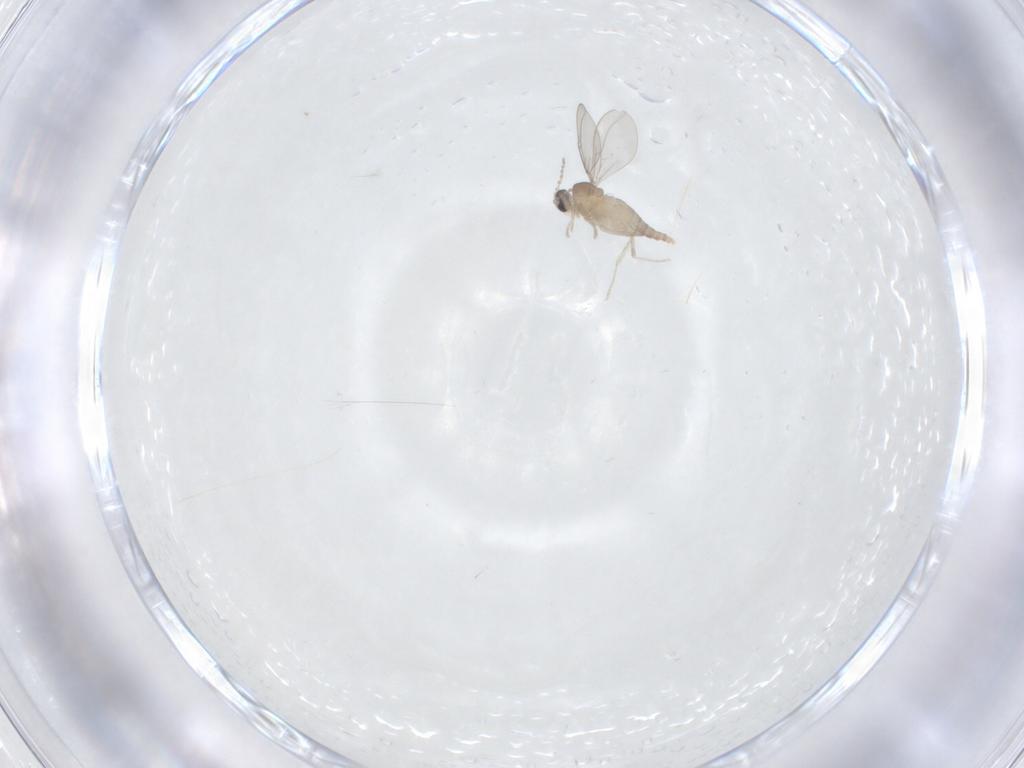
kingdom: Animalia
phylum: Arthropoda
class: Insecta
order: Diptera
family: Cecidomyiidae
